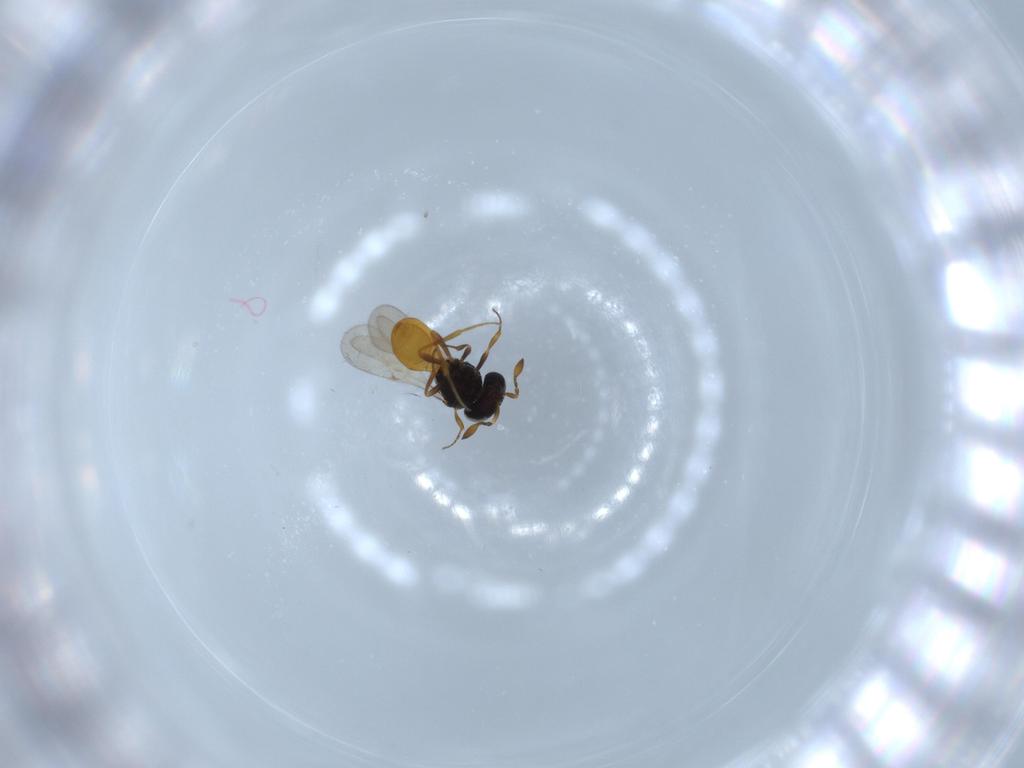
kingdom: Animalia
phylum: Arthropoda
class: Insecta
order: Hymenoptera
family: Scelionidae
